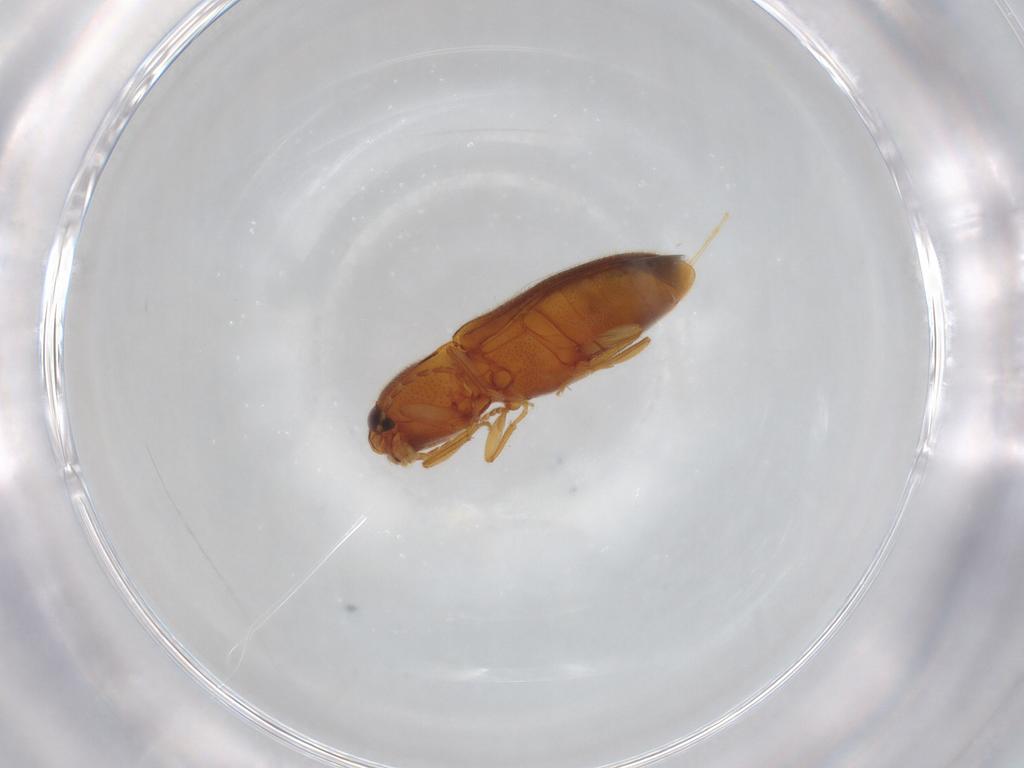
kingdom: Animalia
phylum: Arthropoda
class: Insecta
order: Coleoptera
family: Elateridae
